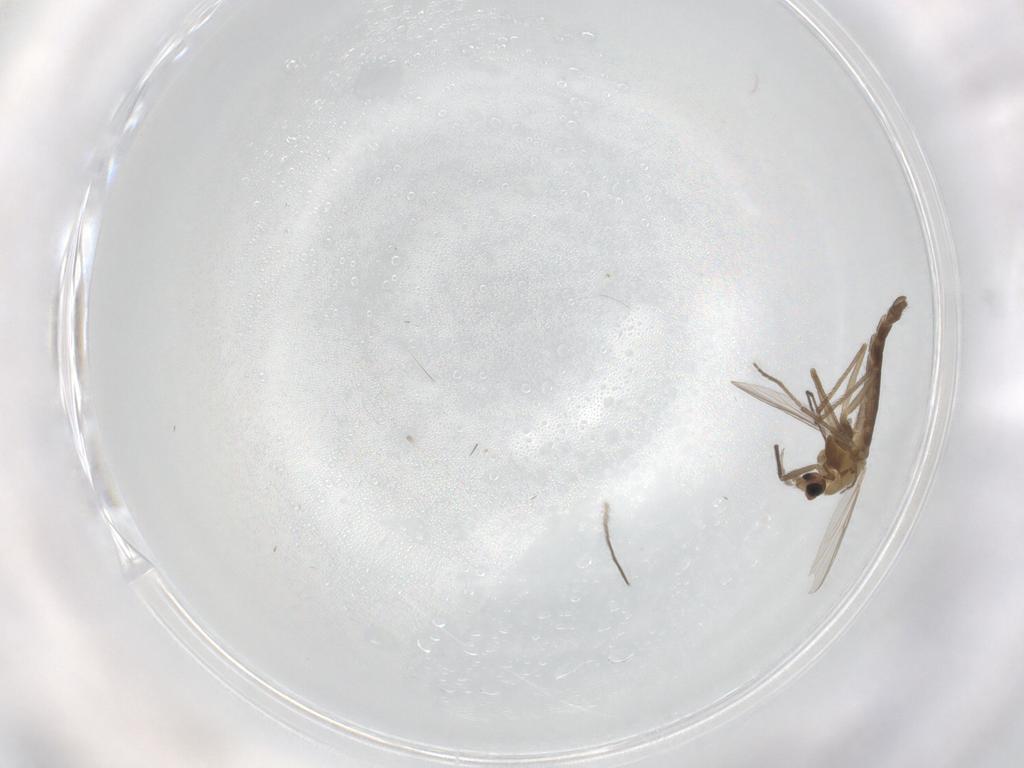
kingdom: Animalia
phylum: Arthropoda
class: Insecta
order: Diptera
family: Chironomidae
